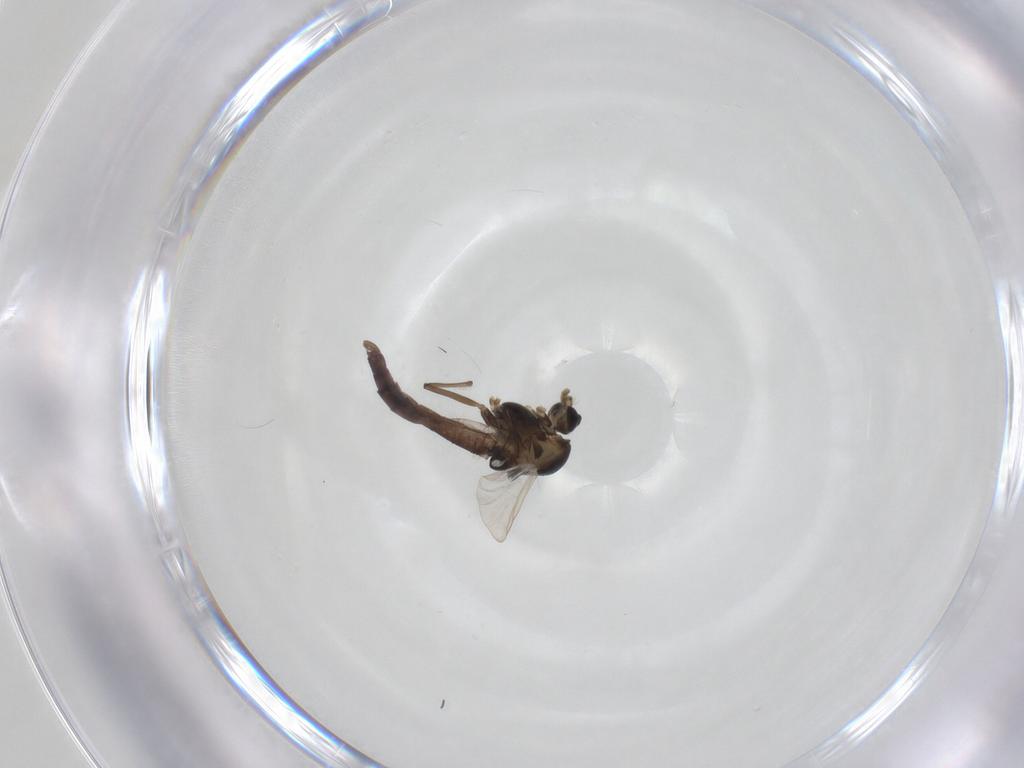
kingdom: Animalia
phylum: Arthropoda
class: Insecta
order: Diptera
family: Chironomidae
